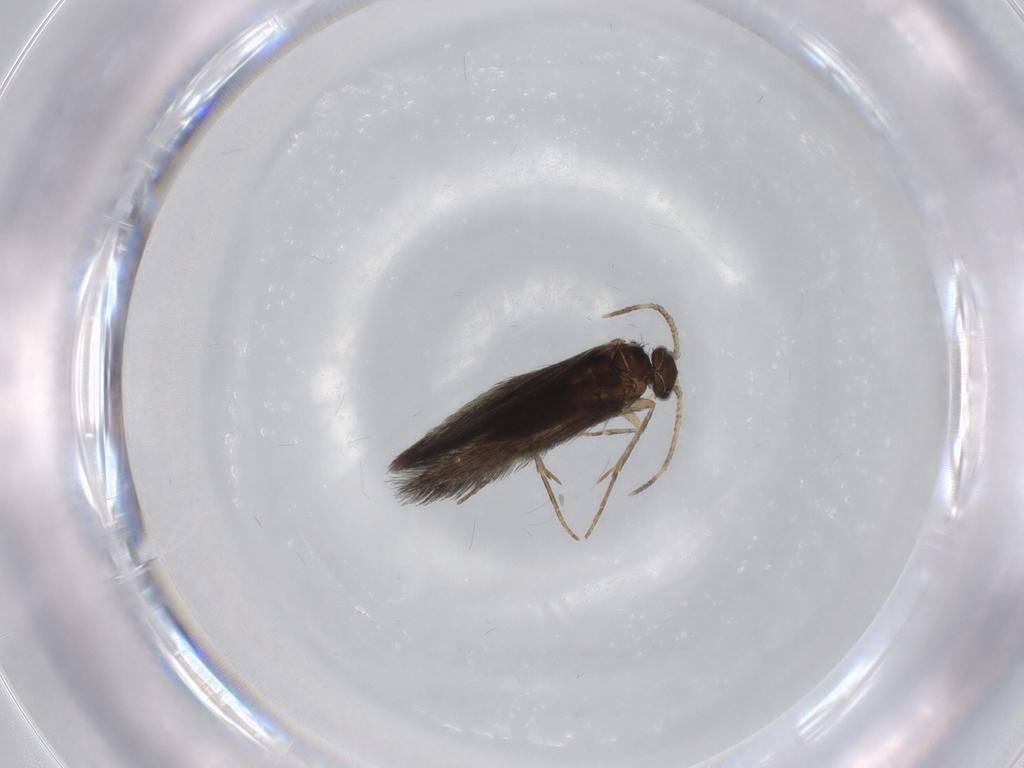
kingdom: Animalia
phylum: Arthropoda
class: Insecta
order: Trichoptera
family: Hydroptilidae
